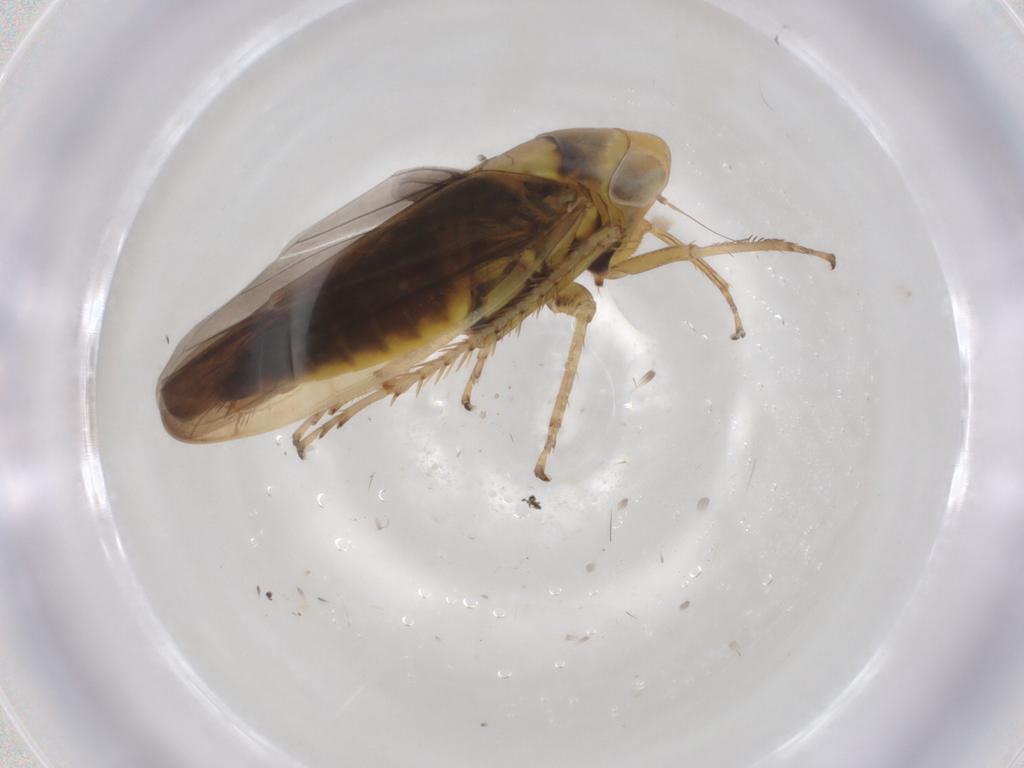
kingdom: Animalia
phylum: Arthropoda
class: Insecta
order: Hemiptera
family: Cicadellidae
